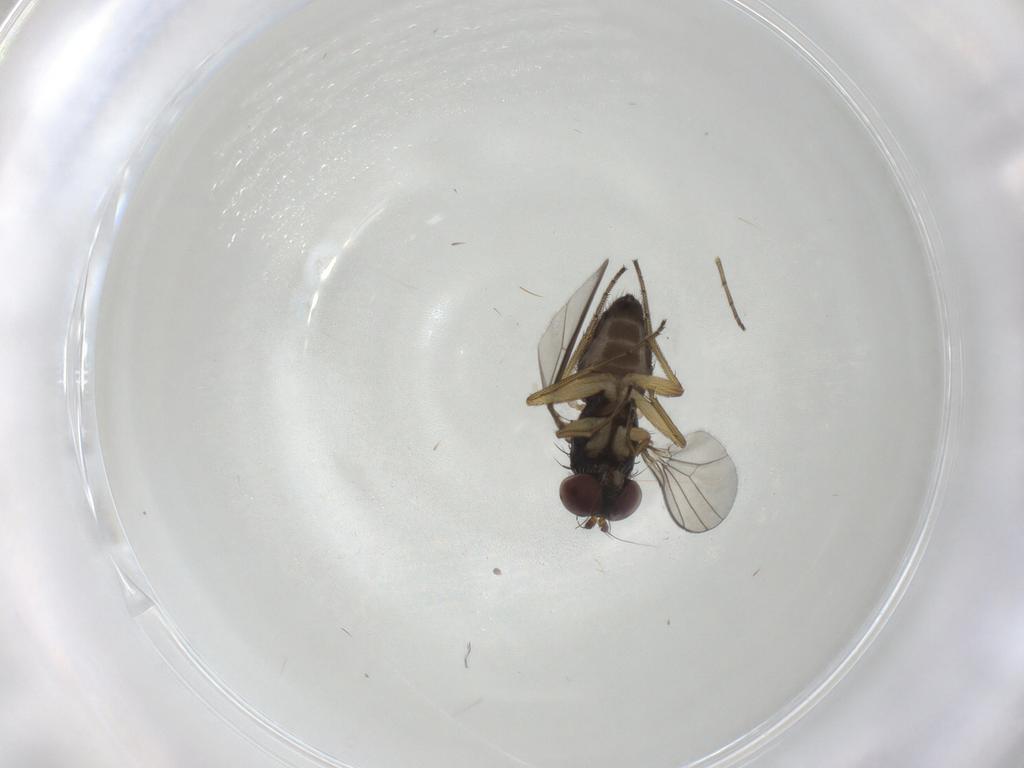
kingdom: Animalia
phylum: Arthropoda
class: Insecta
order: Diptera
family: Dolichopodidae
